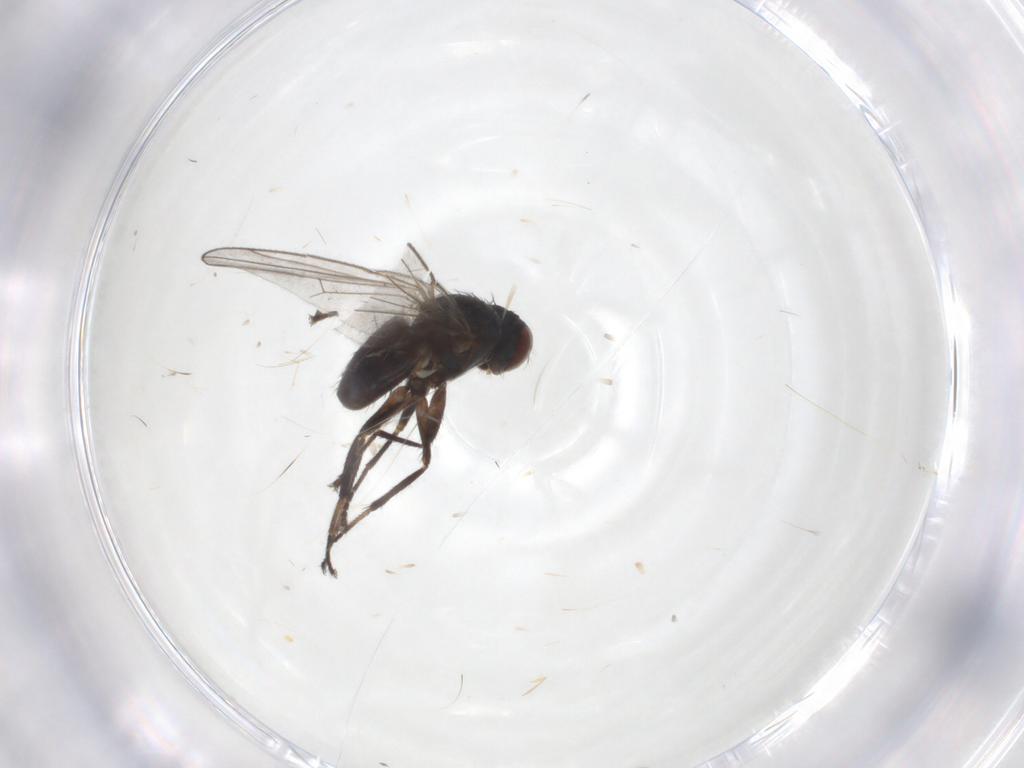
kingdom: Animalia
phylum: Arthropoda
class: Insecta
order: Diptera
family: Ephydridae
